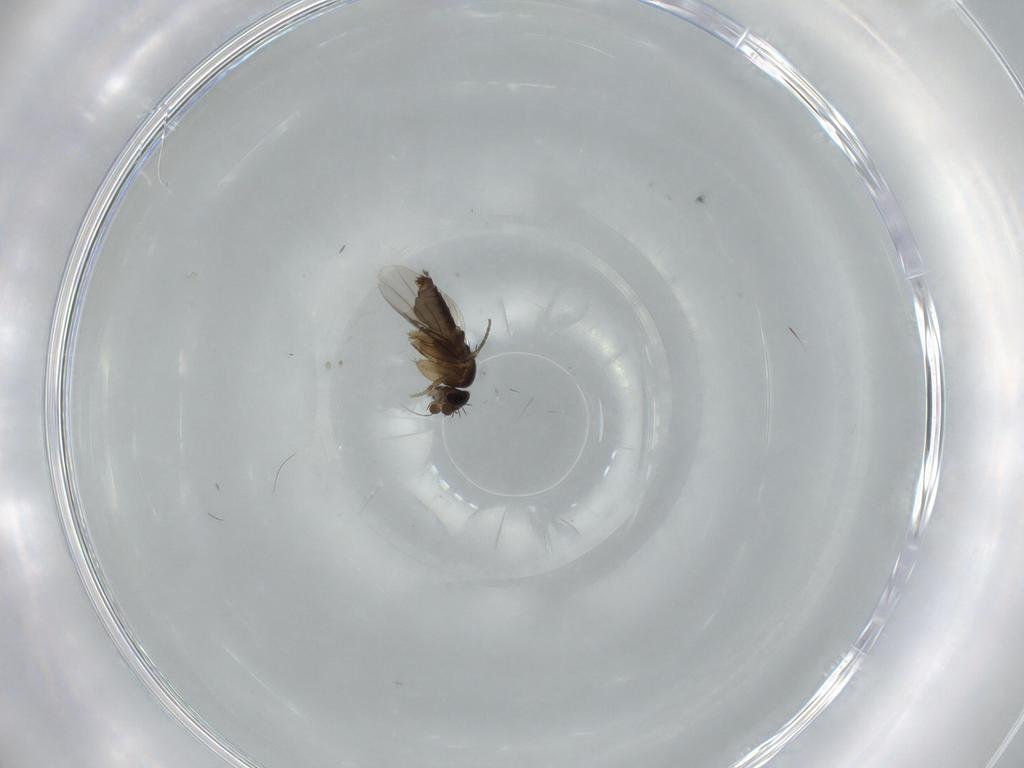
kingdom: Animalia
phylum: Arthropoda
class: Insecta
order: Diptera
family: Phoridae
